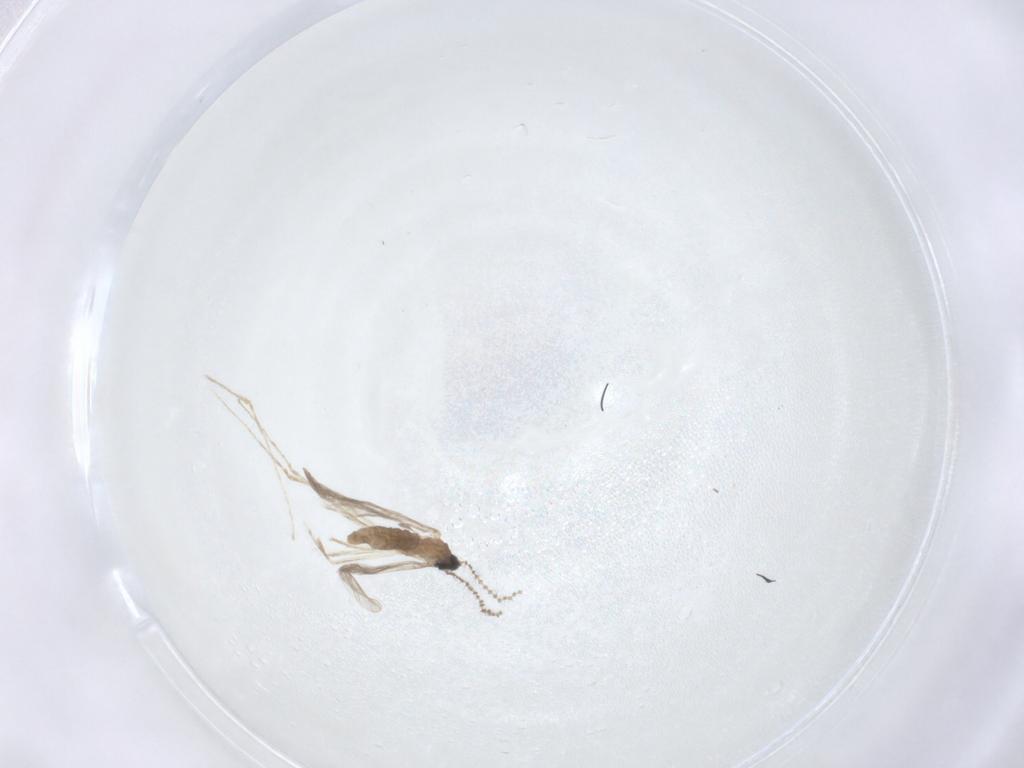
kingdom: Animalia
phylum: Arthropoda
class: Insecta
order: Diptera
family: Cecidomyiidae
